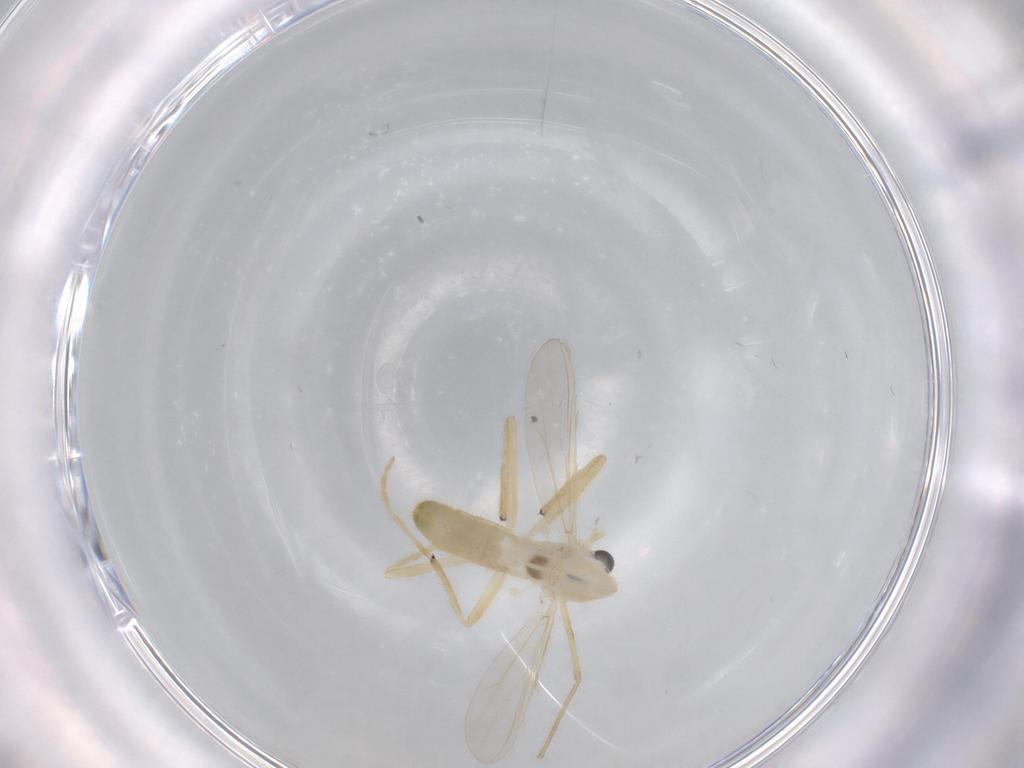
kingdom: Animalia
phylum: Arthropoda
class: Insecta
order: Diptera
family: Chironomidae
